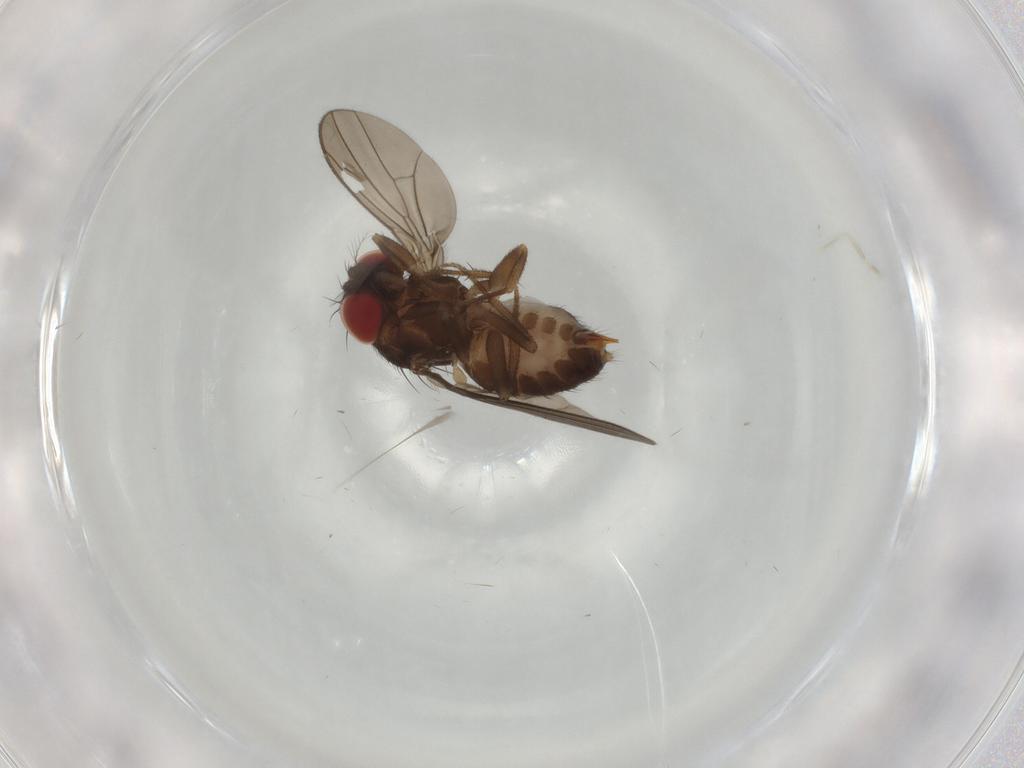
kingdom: Animalia
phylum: Arthropoda
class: Insecta
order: Diptera
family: Drosophilidae
